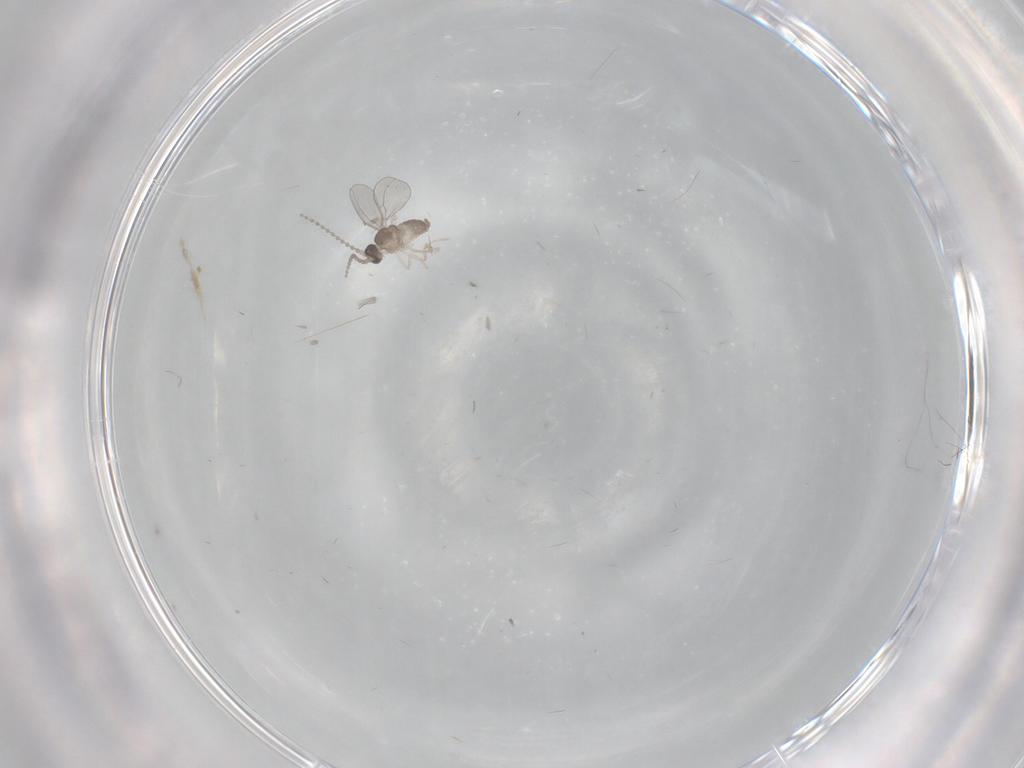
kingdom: Animalia
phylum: Arthropoda
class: Insecta
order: Diptera
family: Cecidomyiidae
